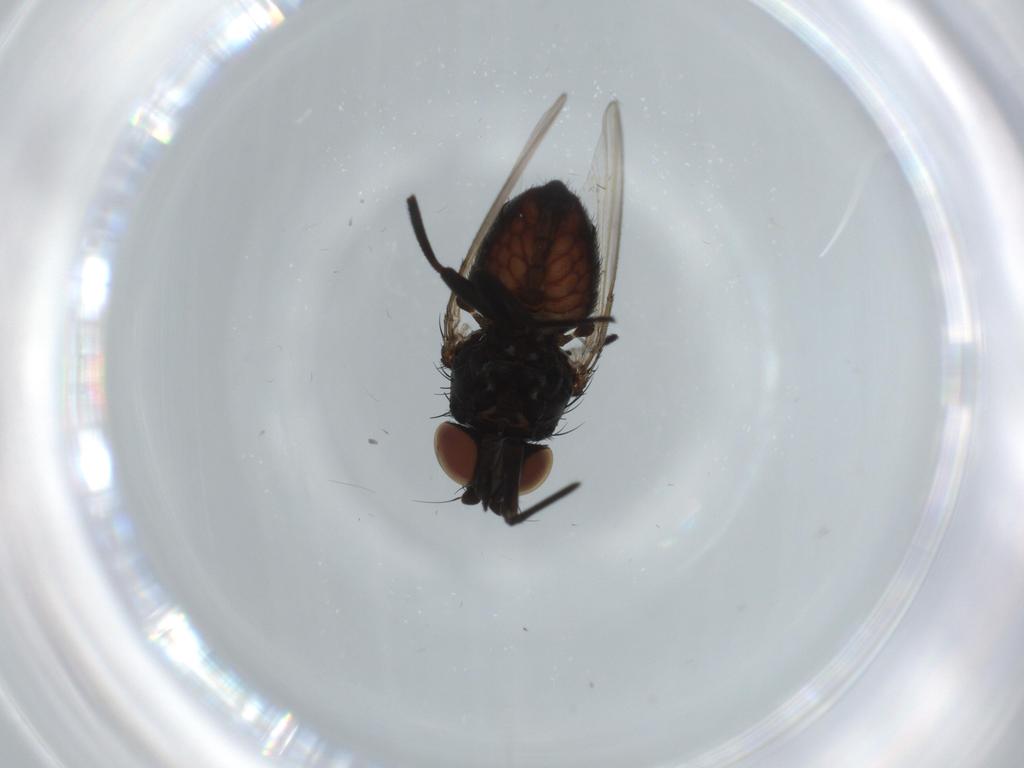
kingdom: Animalia
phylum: Arthropoda
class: Insecta
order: Diptera
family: Milichiidae
